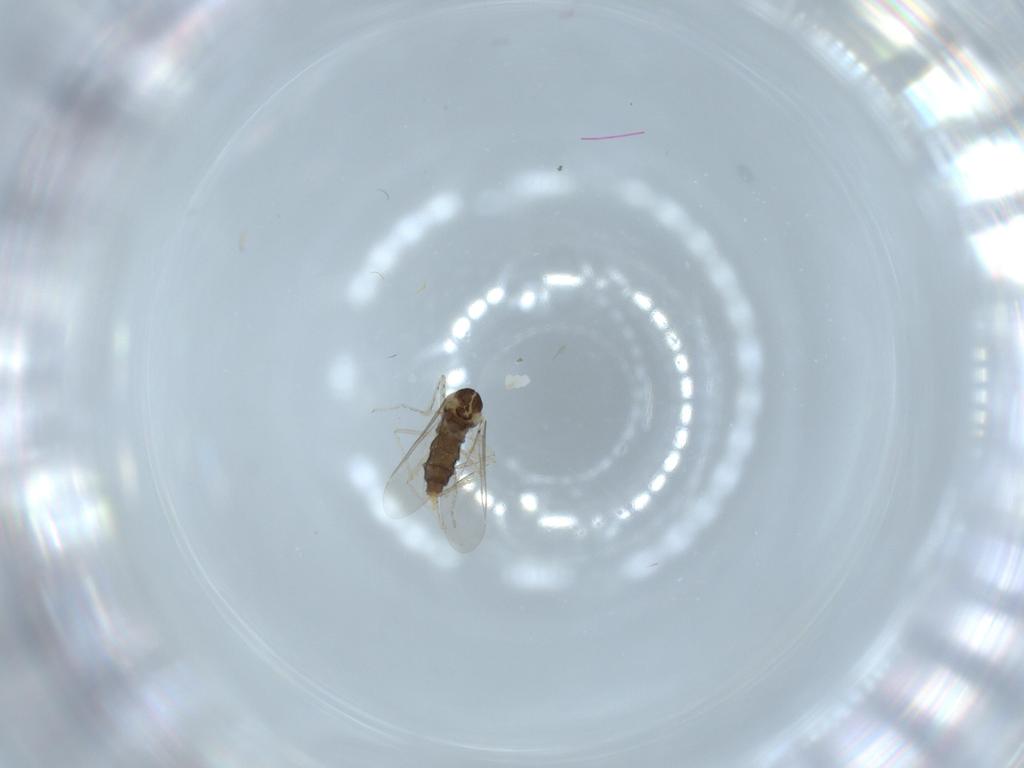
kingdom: Animalia
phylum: Arthropoda
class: Insecta
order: Diptera
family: Cecidomyiidae
